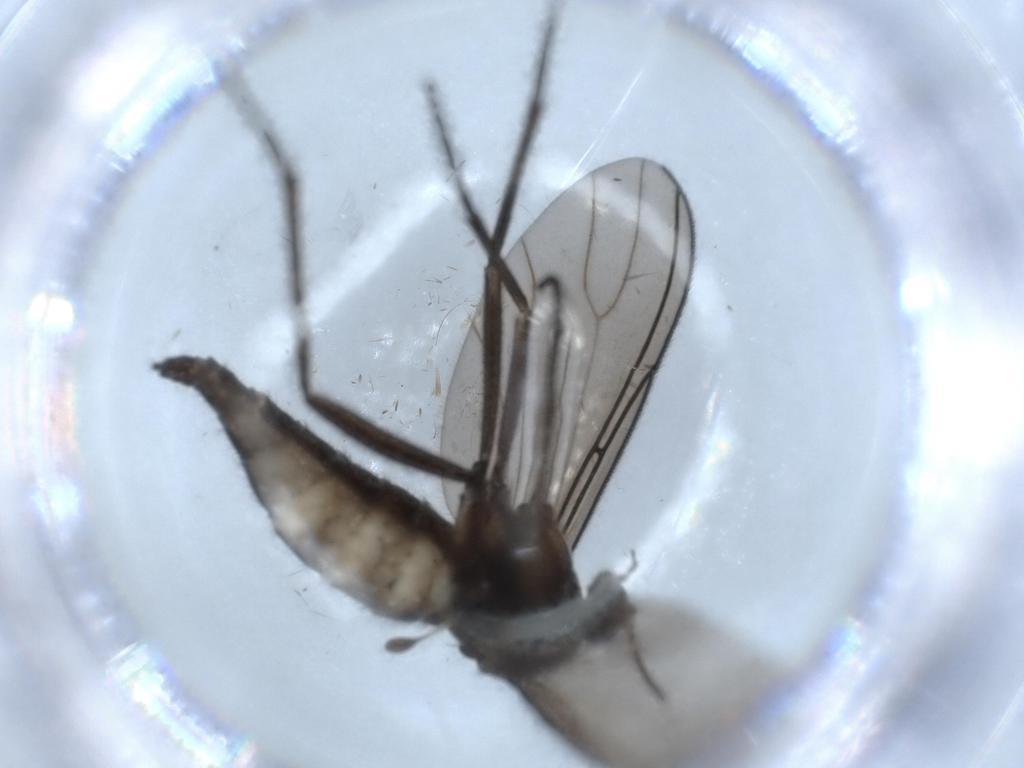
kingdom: Animalia
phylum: Arthropoda
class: Insecta
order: Diptera
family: Sciaridae
